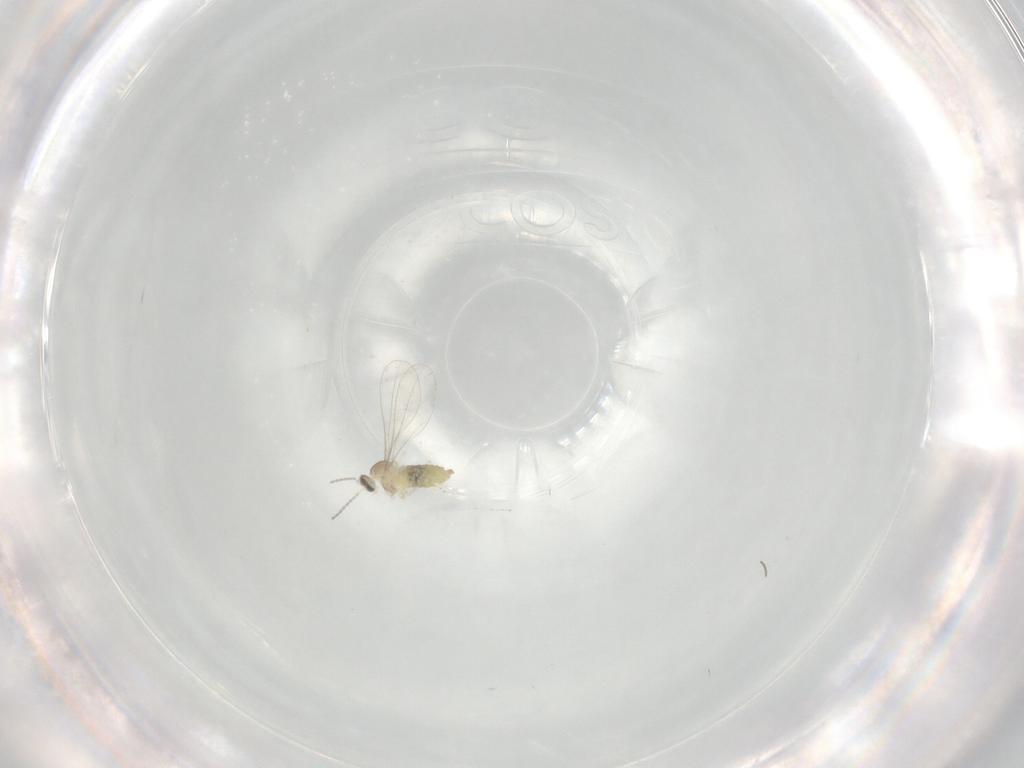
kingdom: Animalia
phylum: Arthropoda
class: Insecta
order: Diptera
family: Cecidomyiidae
